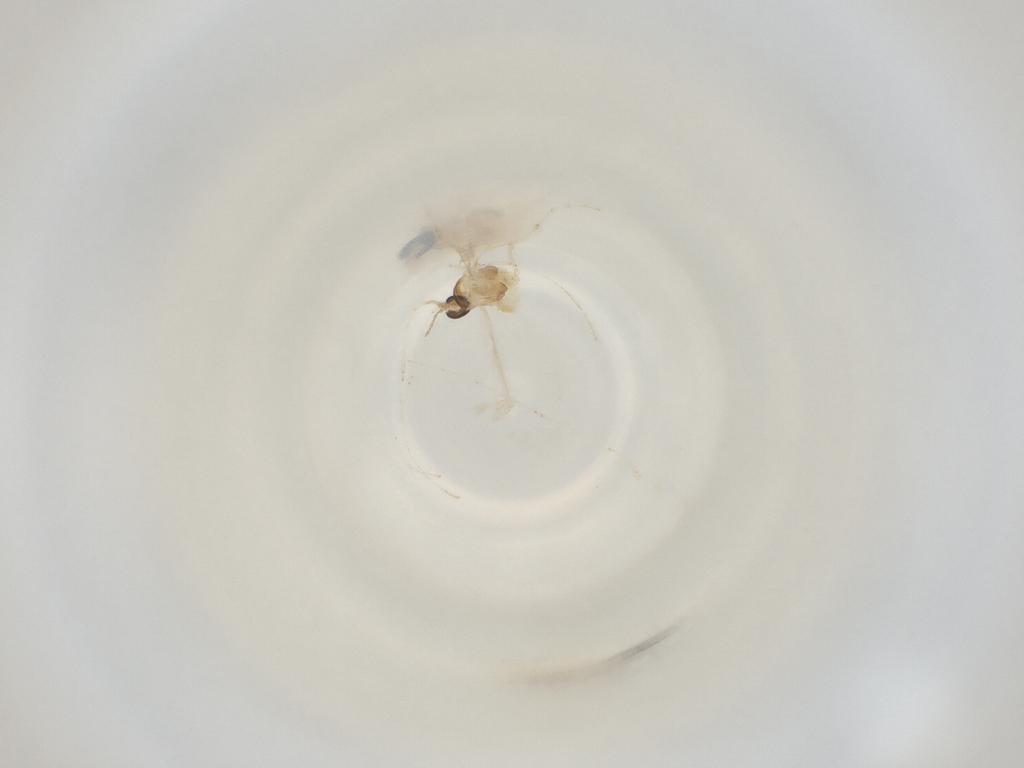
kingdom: Animalia
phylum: Arthropoda
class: Insecta
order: Diptera
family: Cecidomyiidae
